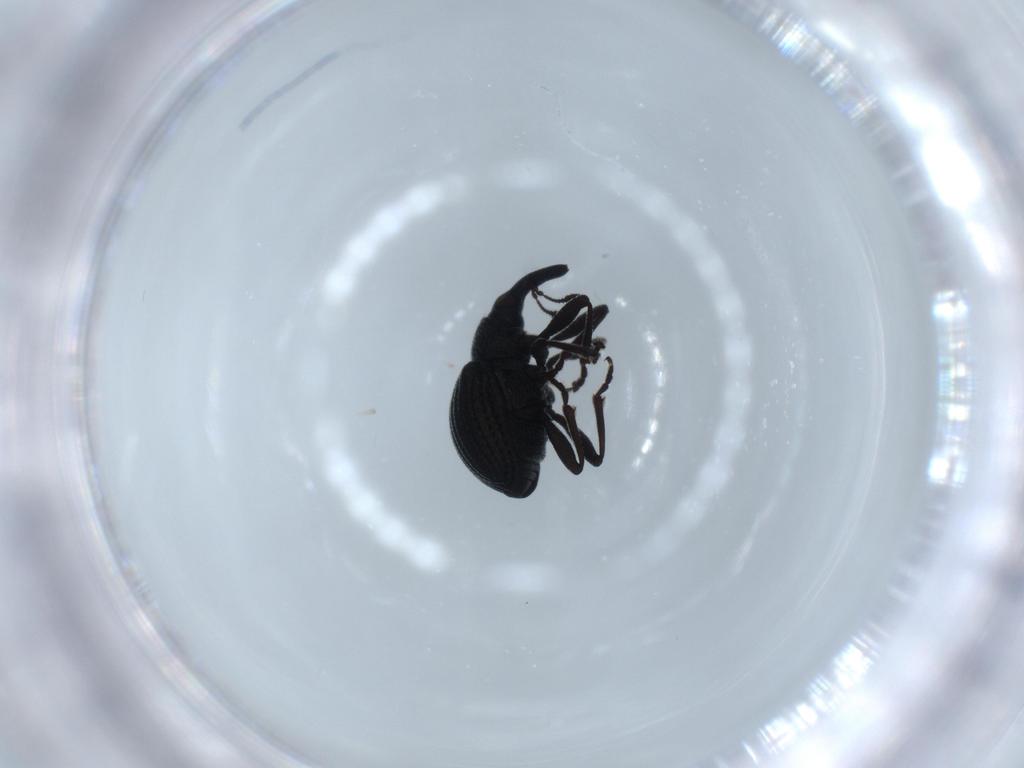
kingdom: Animalia
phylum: Arthropoda
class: Insecta
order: Coleoptera
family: Brentidae
